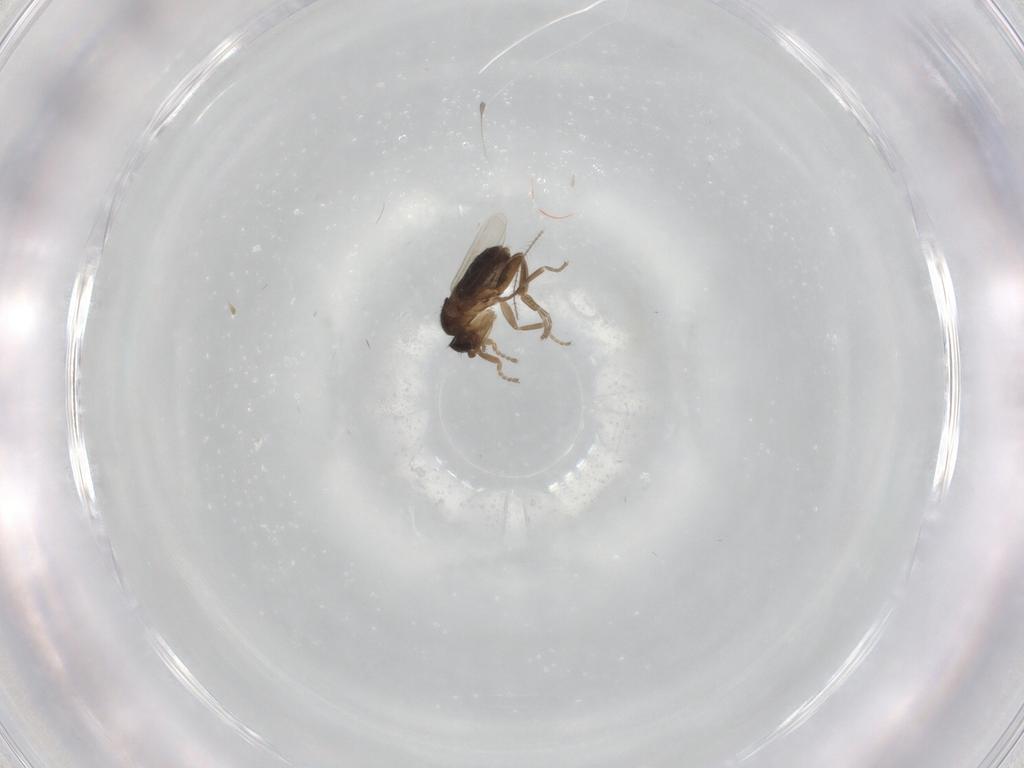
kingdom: Animalia
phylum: Arthropoda
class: Insecta
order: Diptera
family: Phoridae
